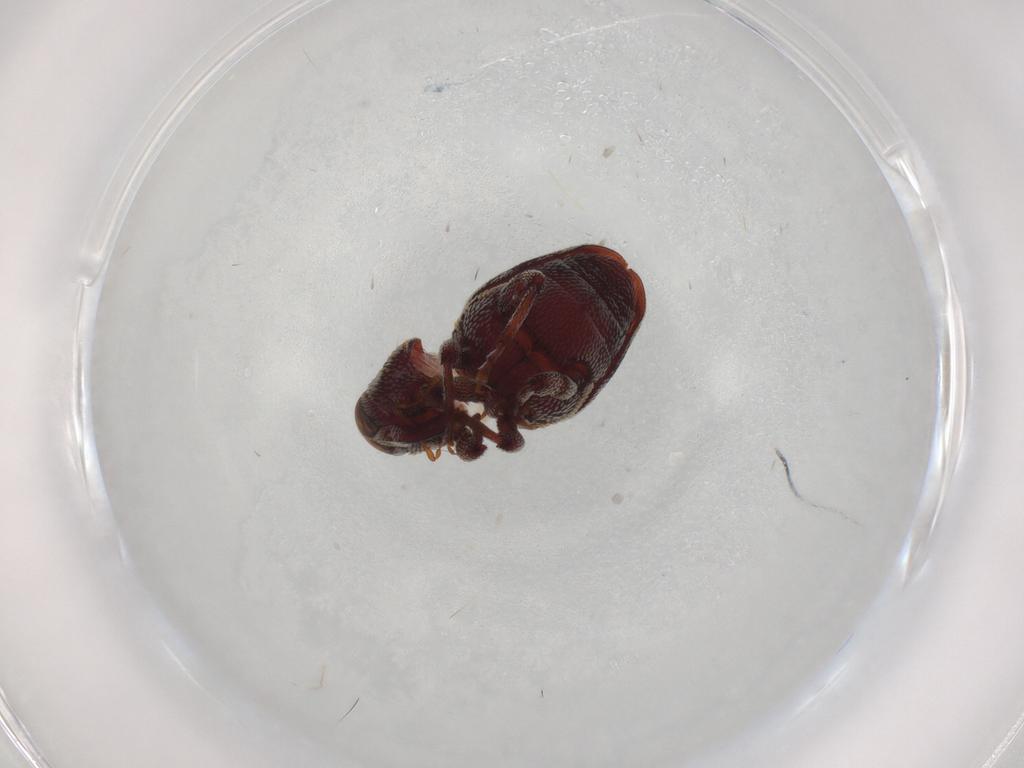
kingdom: Animalia
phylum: Arthropoda
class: Insecta
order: Coleoptera
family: Curculionidae
